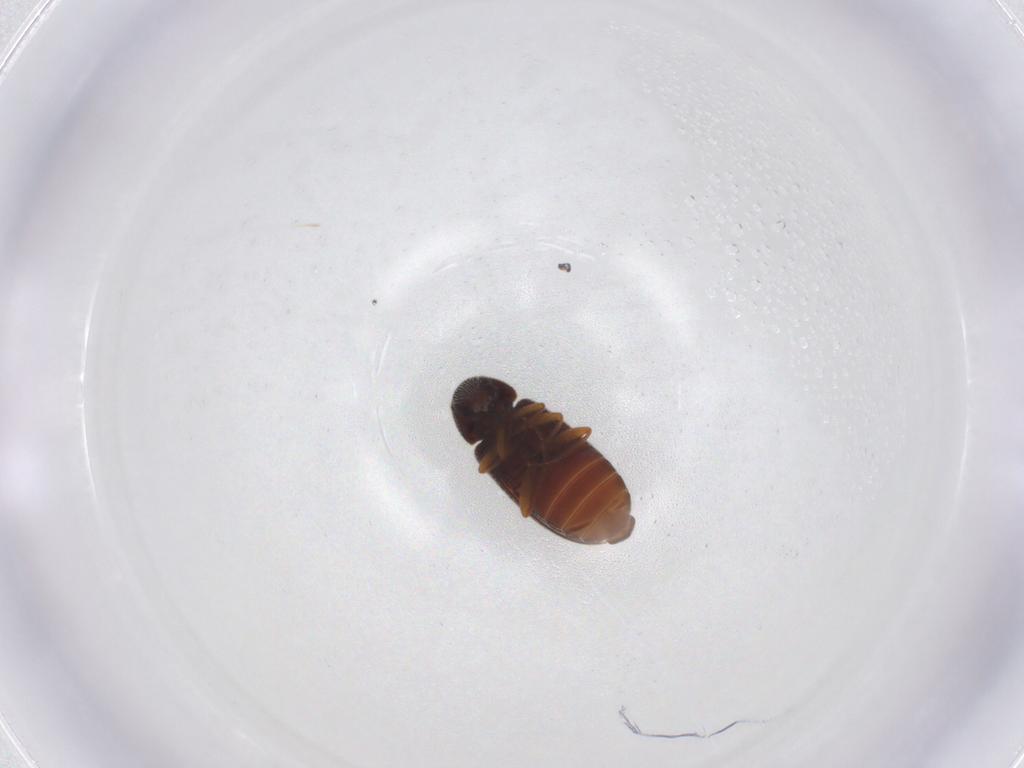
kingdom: Animalia
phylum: Arthropoda
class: Insecta
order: Coleoptera
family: Rhadalidae
